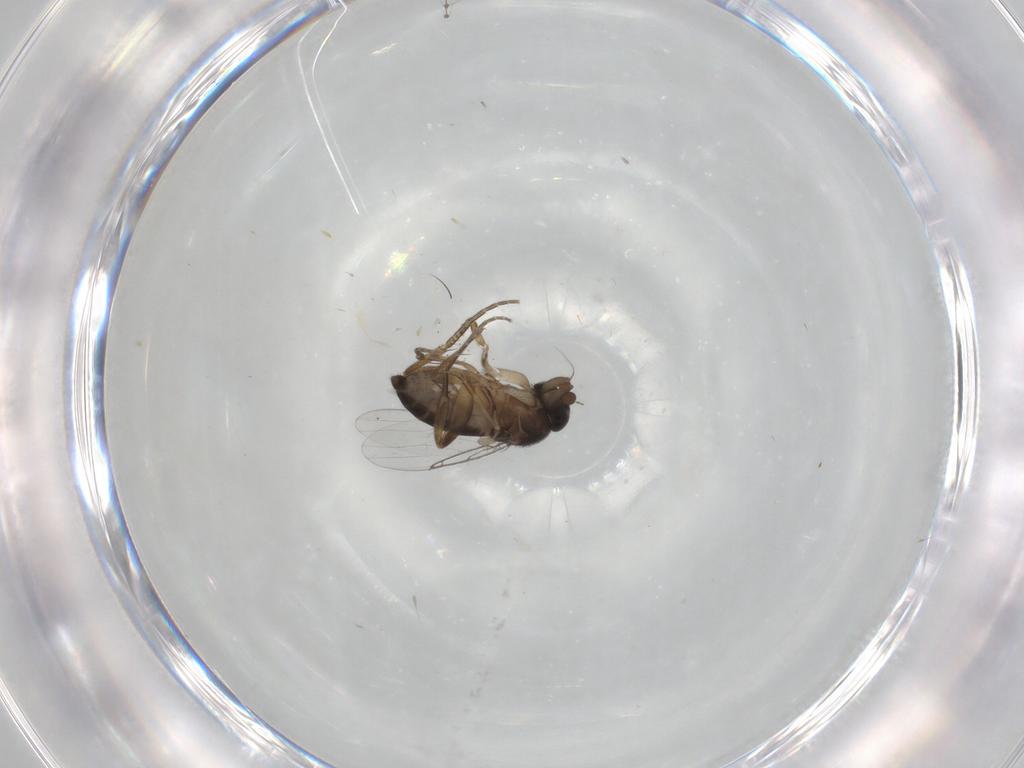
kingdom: Animalia
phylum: Arthropoda
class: Insecta
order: Diptera
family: Phoridae
